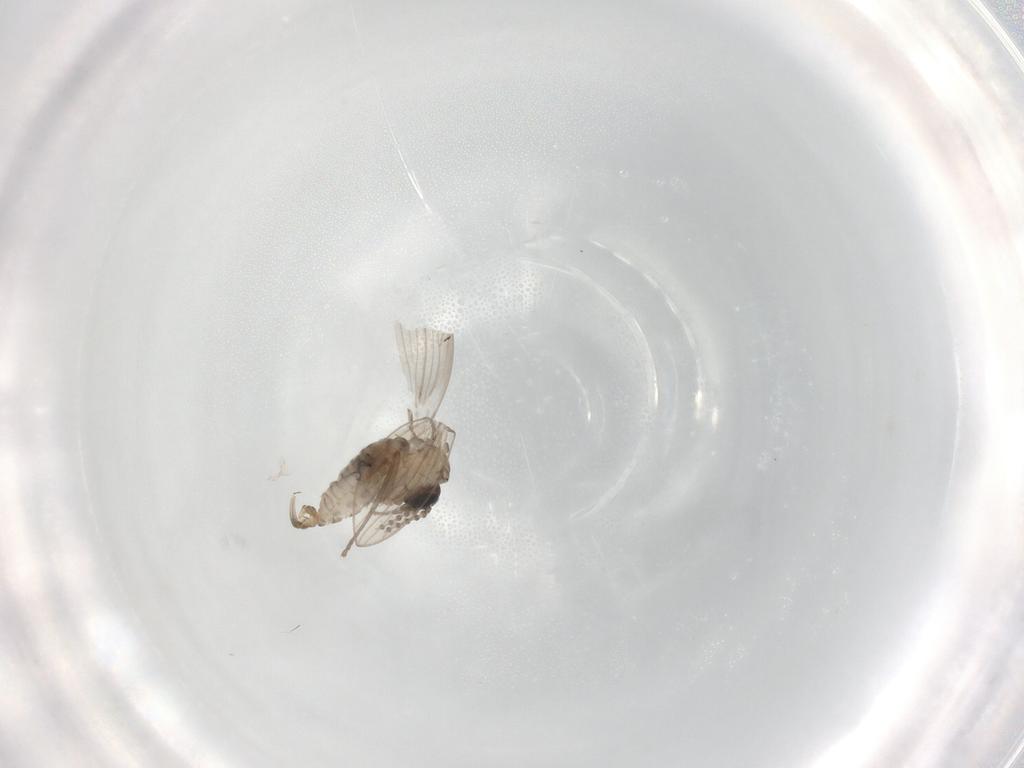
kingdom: Animalia
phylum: Arthropoda
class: Insecta
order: Diptera
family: Psychodidae
